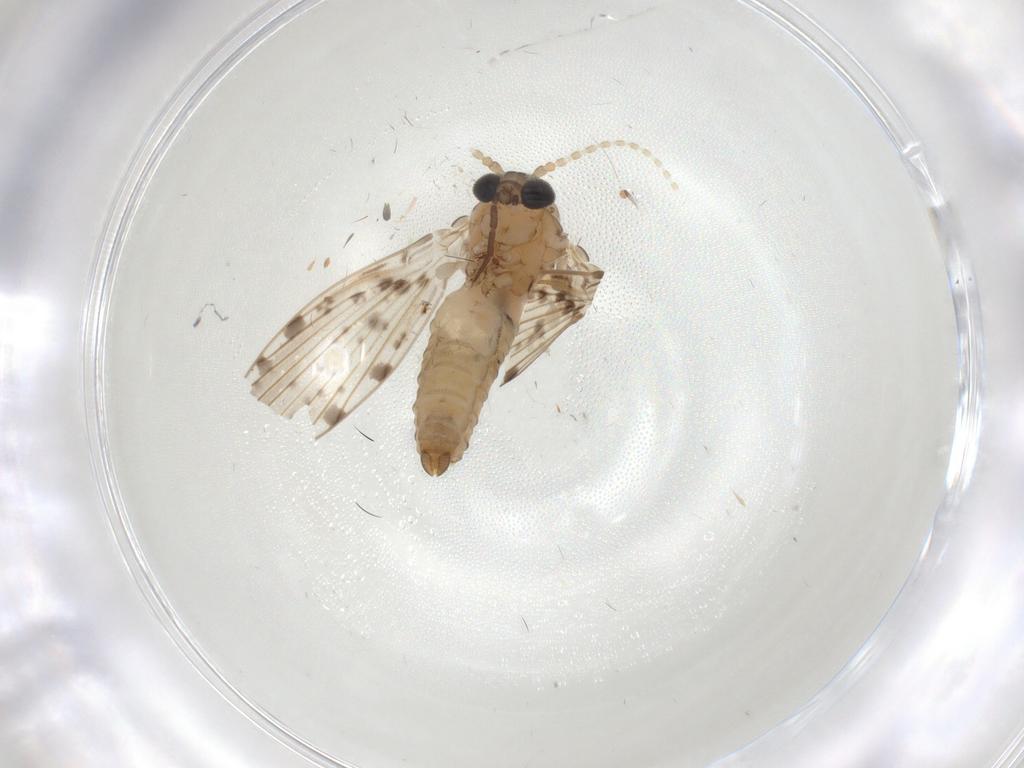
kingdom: Animalia
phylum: Arthropoda
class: Insecta
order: Diptera
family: Psychodidae
